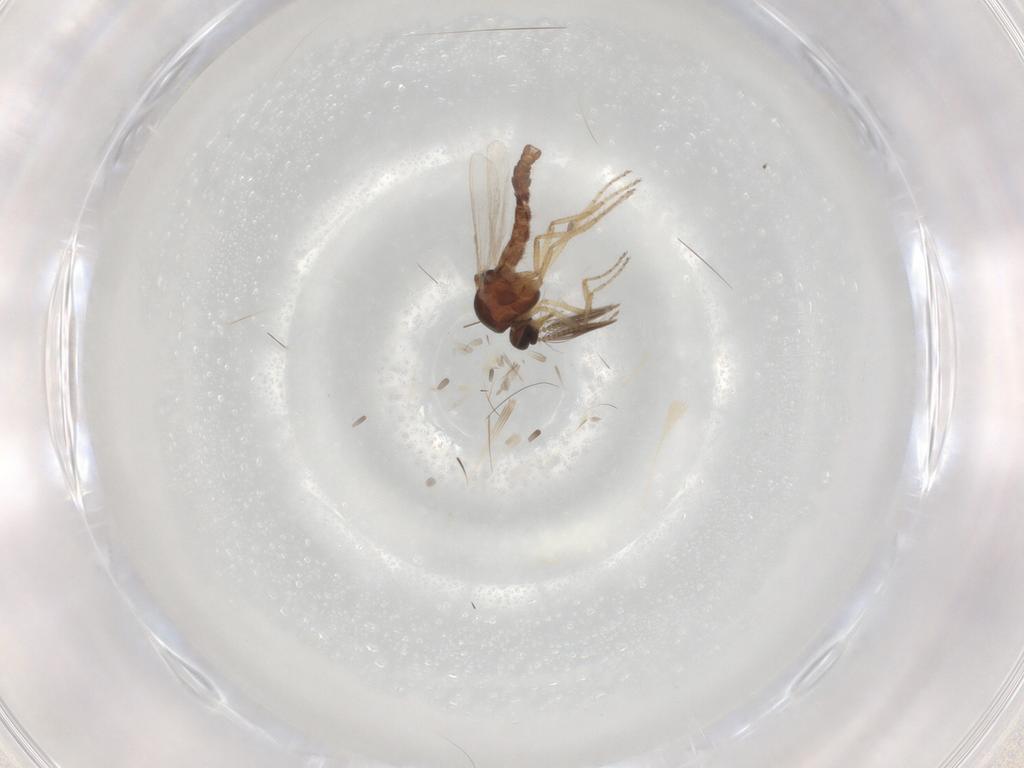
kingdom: Animalia
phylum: Arthropoda
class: Insecta
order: Diptera
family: Ceratopogonidae
